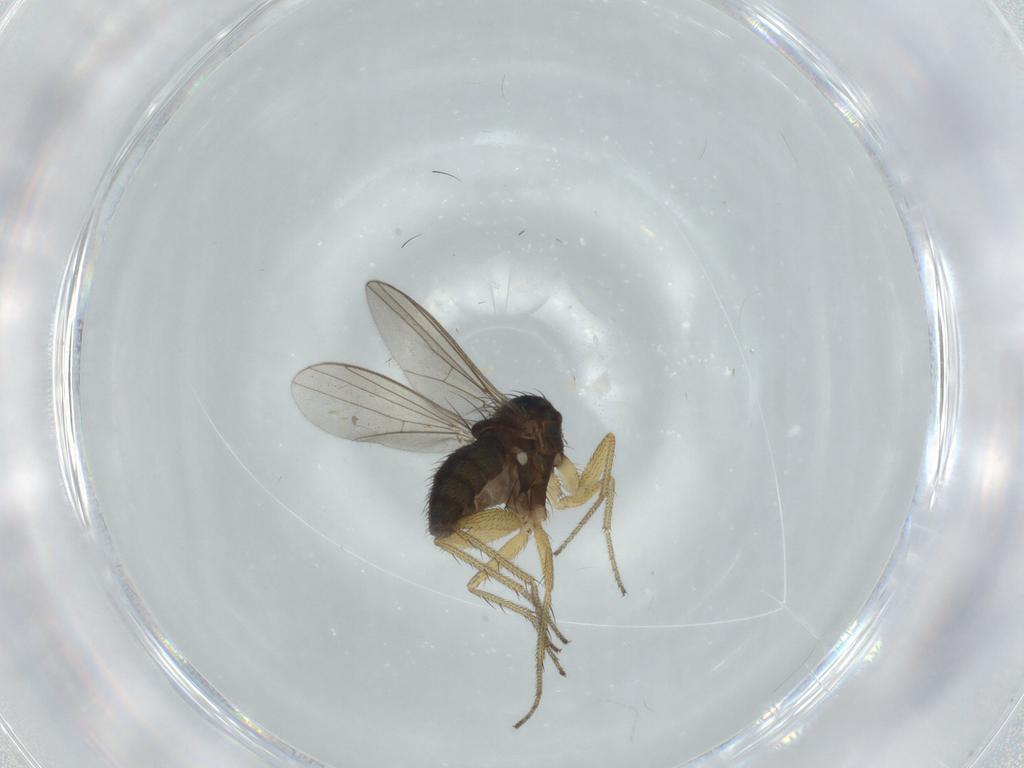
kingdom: Animalia
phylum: Arthropoda
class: Insecta
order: Diptera
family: Dolichopodidae
